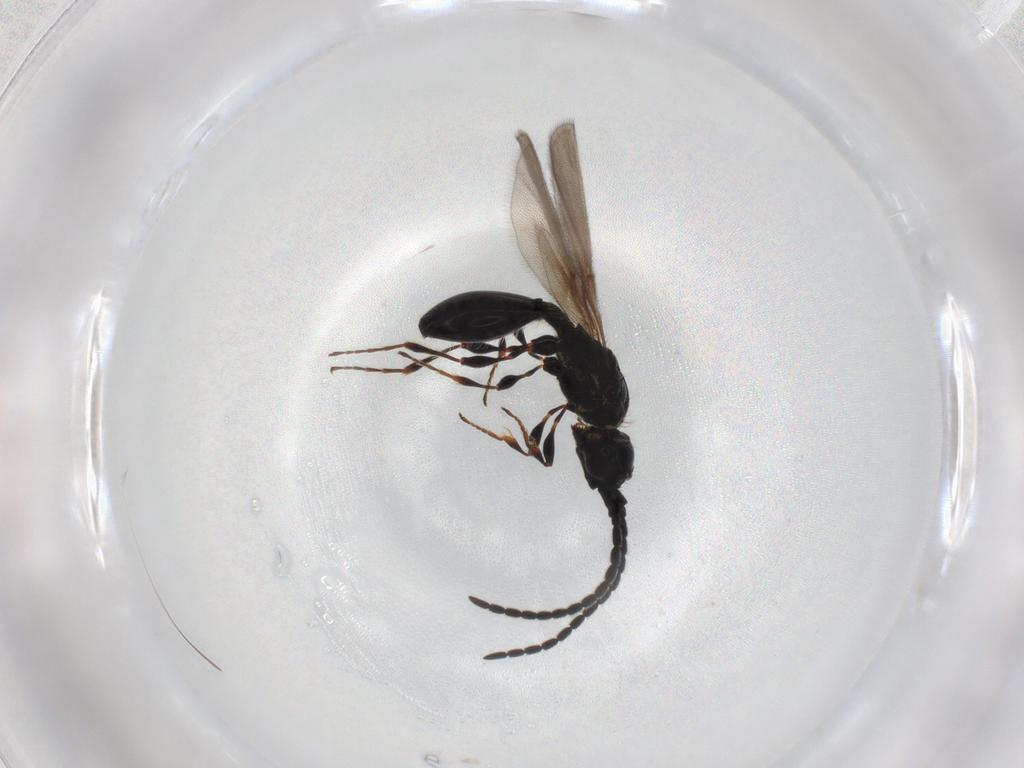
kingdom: Animalia
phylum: Arthropoda
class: Insecta
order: Hymenoptera
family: Diapriidae
